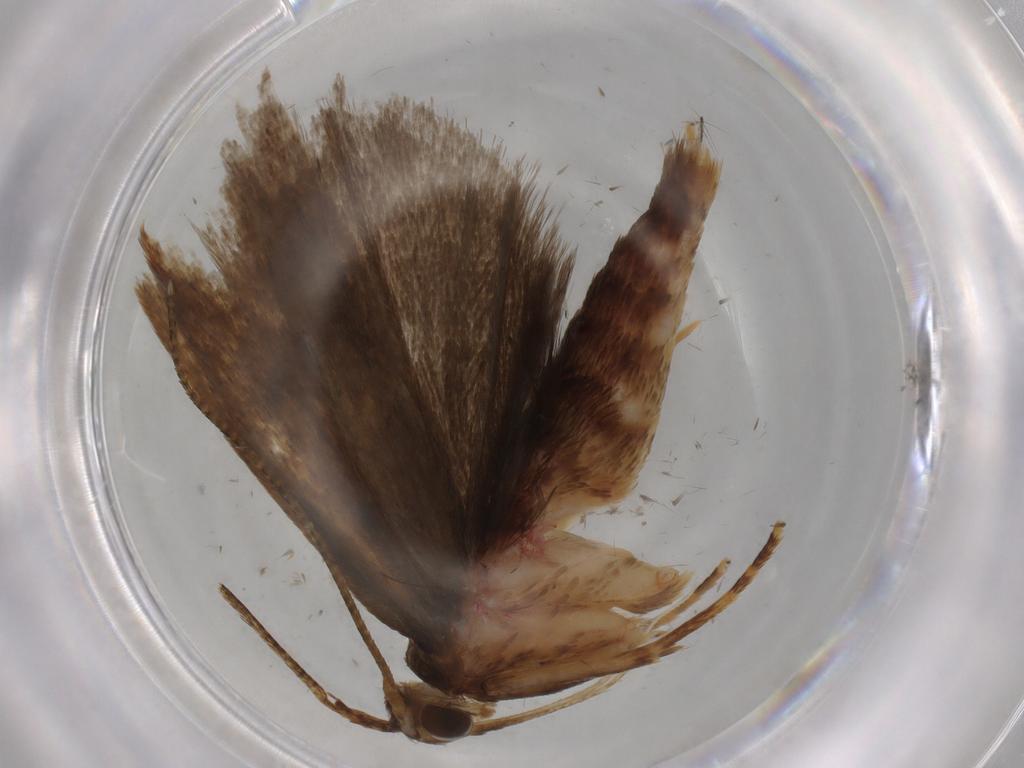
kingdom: Animalia
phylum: Arthropoda
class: Insecta
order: Lepidoptera
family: Autostichidae
